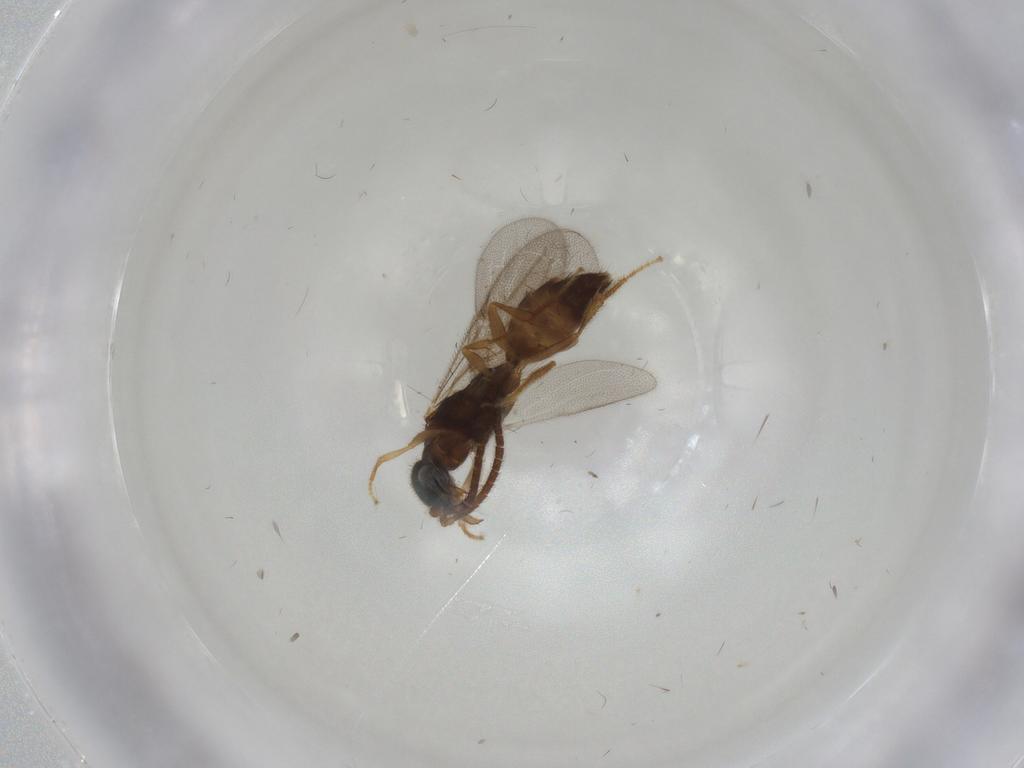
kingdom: Animalia
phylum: Arthropoda
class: Insecta
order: Hymenoptera
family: Bethylidae
